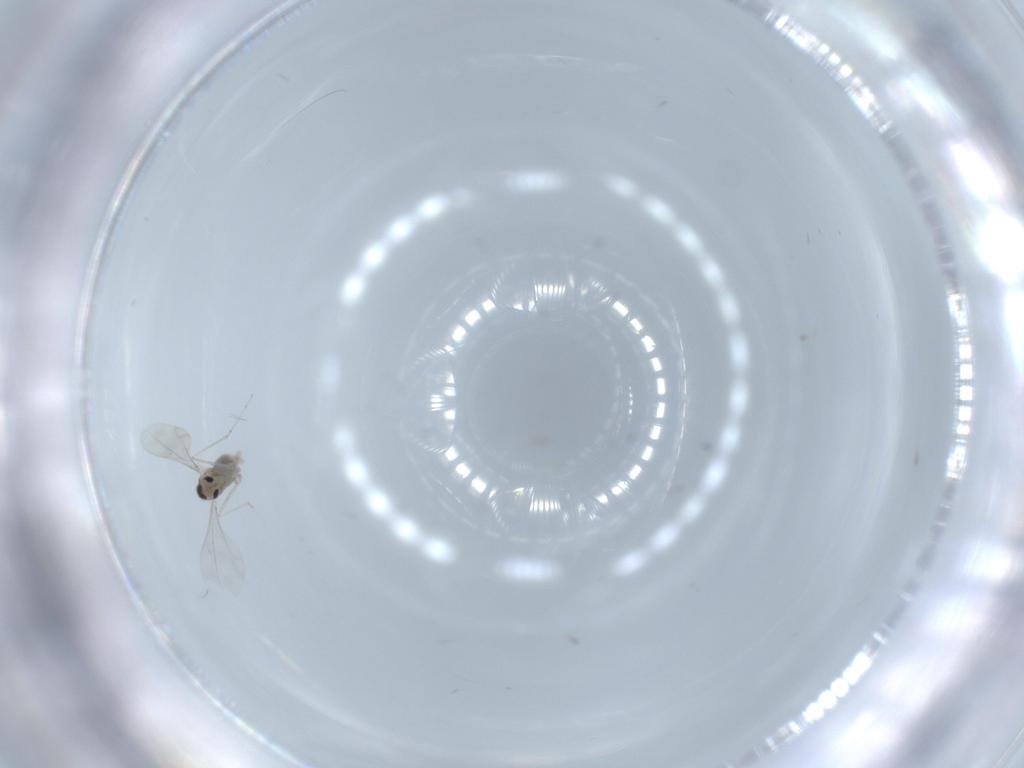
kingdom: Animalia
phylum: Arthropoda
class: Insecta
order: Diptera
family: Cecidomyiidae
